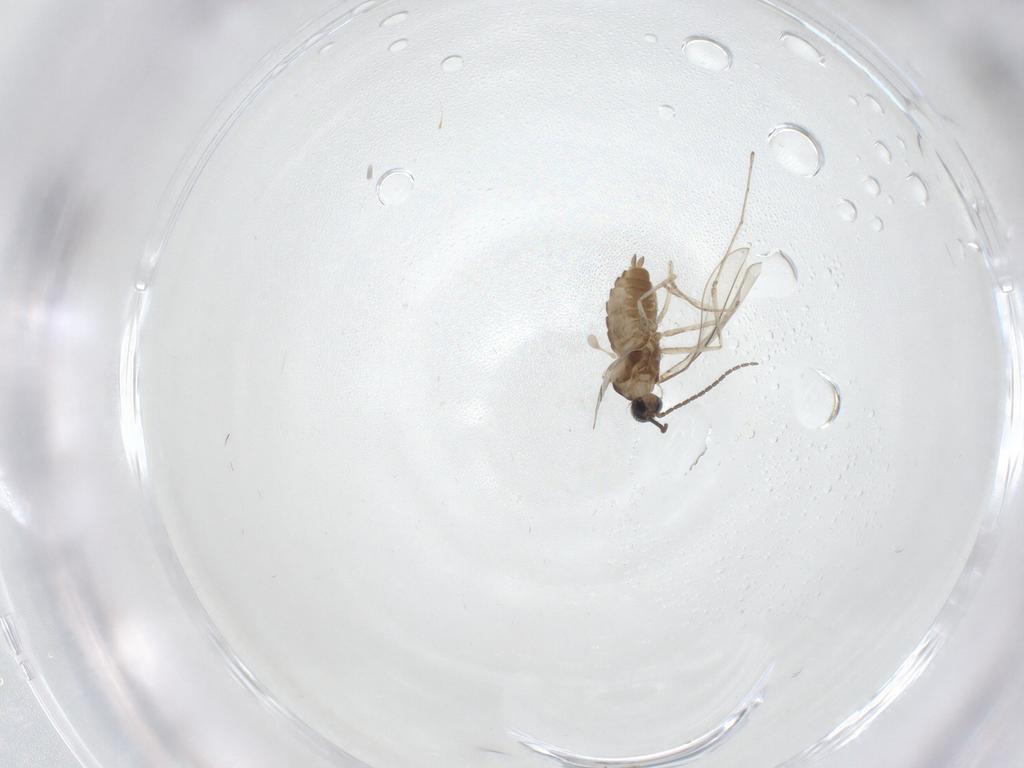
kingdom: Animalia
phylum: Arthropoda
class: Insecta
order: Diptera
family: Cecidomyiidae
